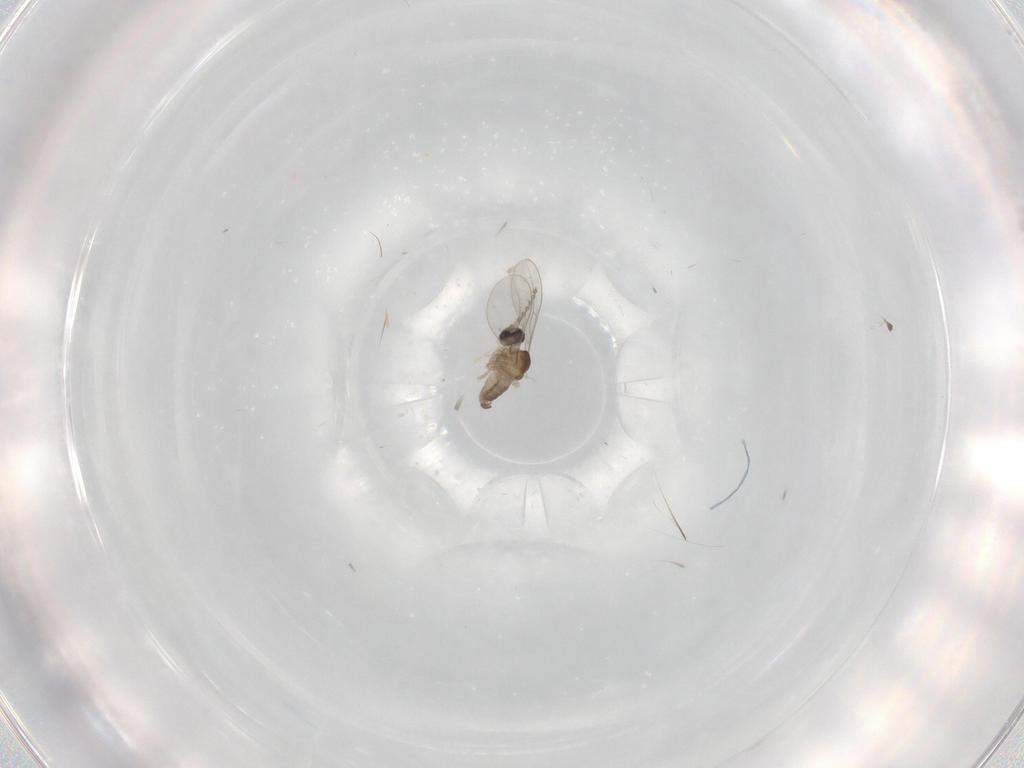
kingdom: Animalia
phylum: Arthropoda
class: Insecta
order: Diptera
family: Cecidomyiidae
